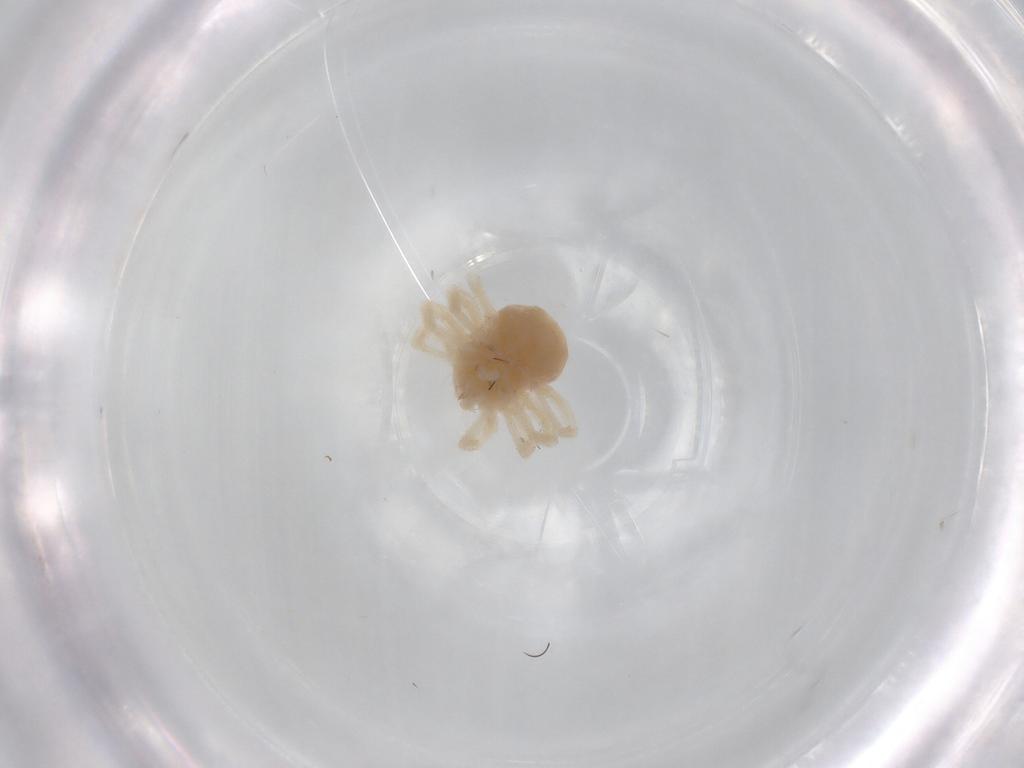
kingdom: Animalia
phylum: Arthropoda
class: Arachnida
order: Trombidiformes
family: Anystidae
